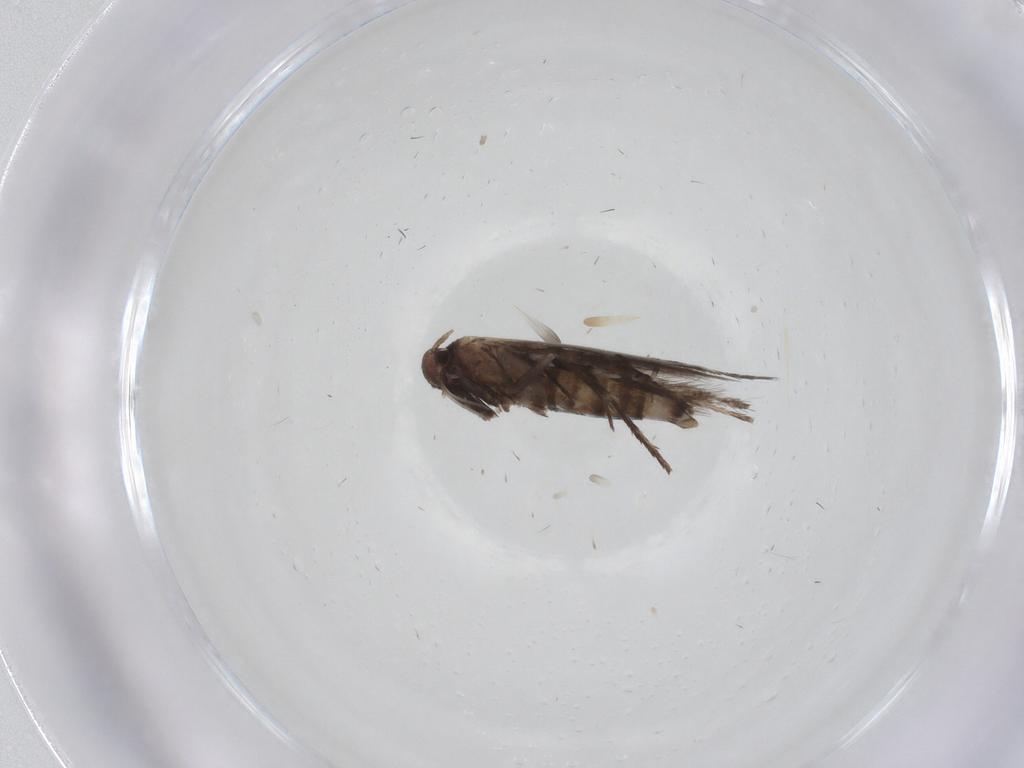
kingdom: Animalia
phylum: Arthropoda
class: Insecta
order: Lepidoptera
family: Gracillariidae
